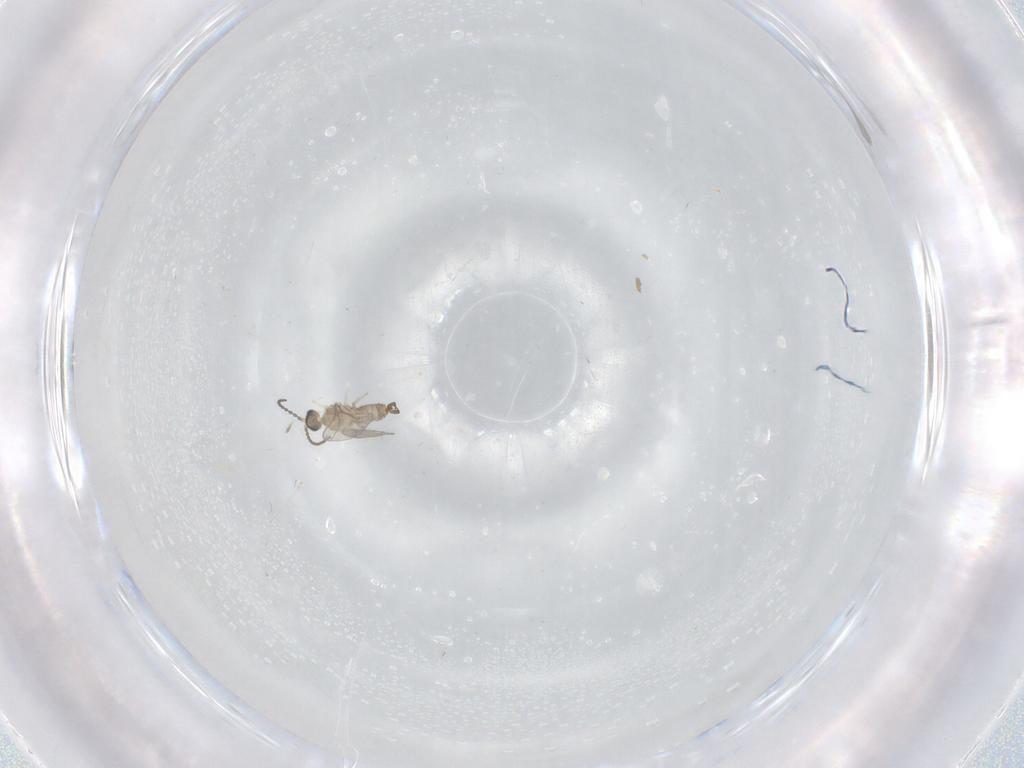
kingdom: Animalia
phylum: Arthropoda
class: Insecta
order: Diptera
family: Cecidomyiidae
